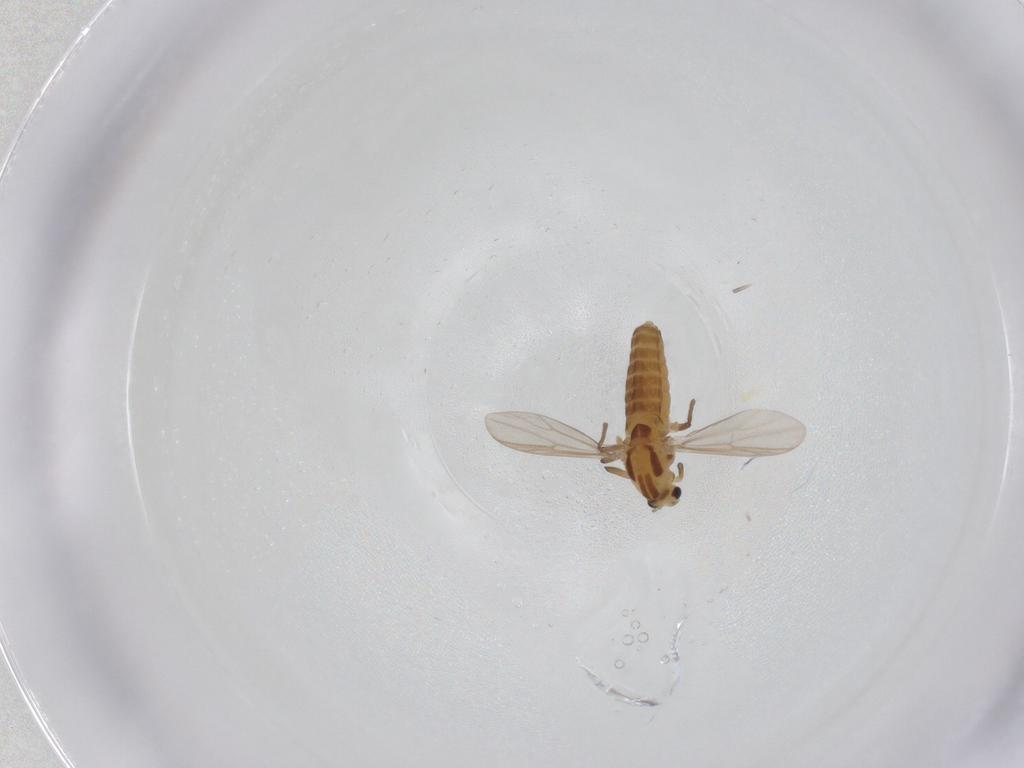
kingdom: Animalia
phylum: Arthropoda
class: Insecta
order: Diptera
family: Chironomidae
